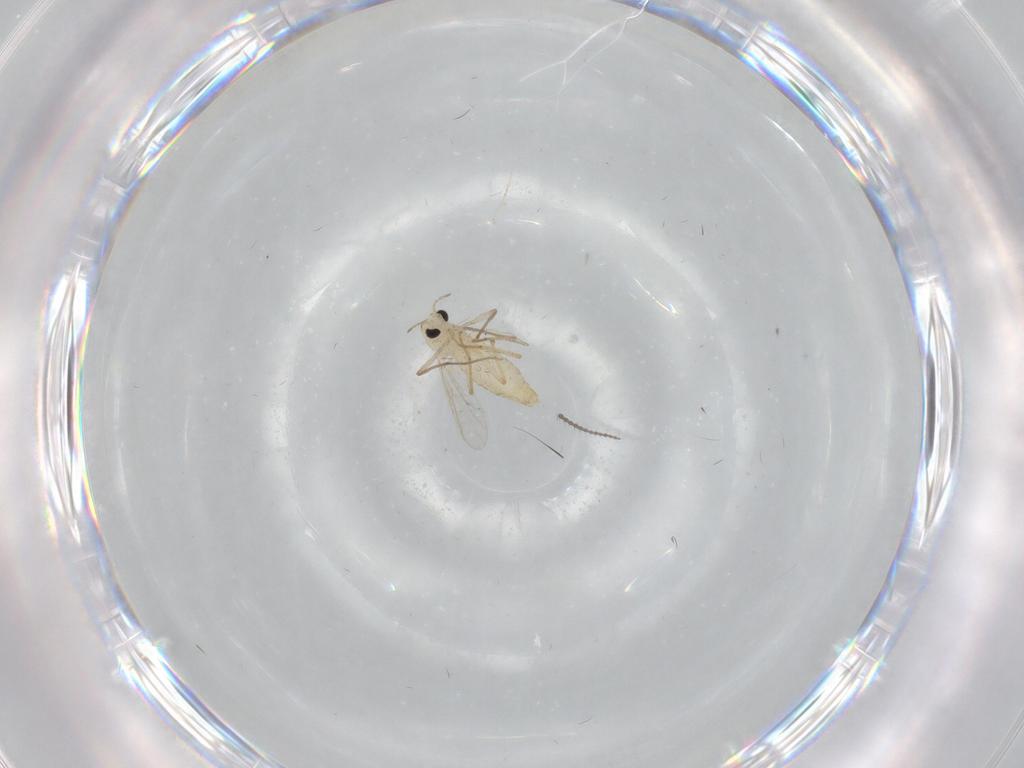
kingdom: Animalia
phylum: Arthropoda
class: Insecta
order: Diptera
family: Chironomidae
